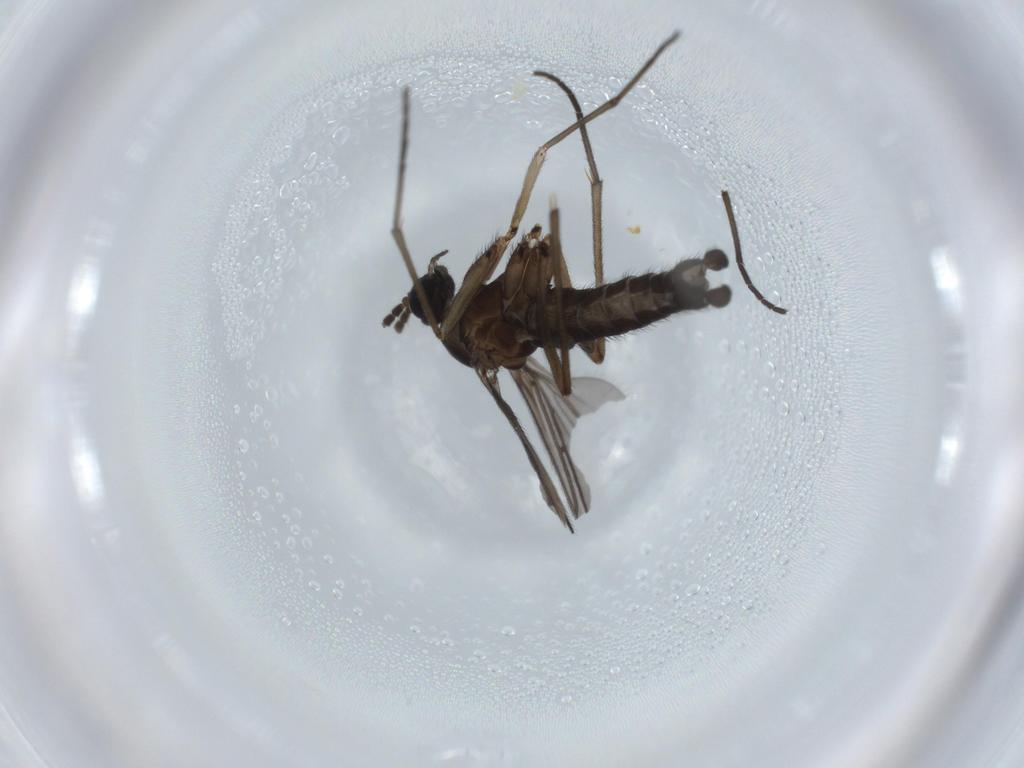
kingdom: Animalia
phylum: Arthropoda
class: Insecta
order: Diptera
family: Sciaridae
